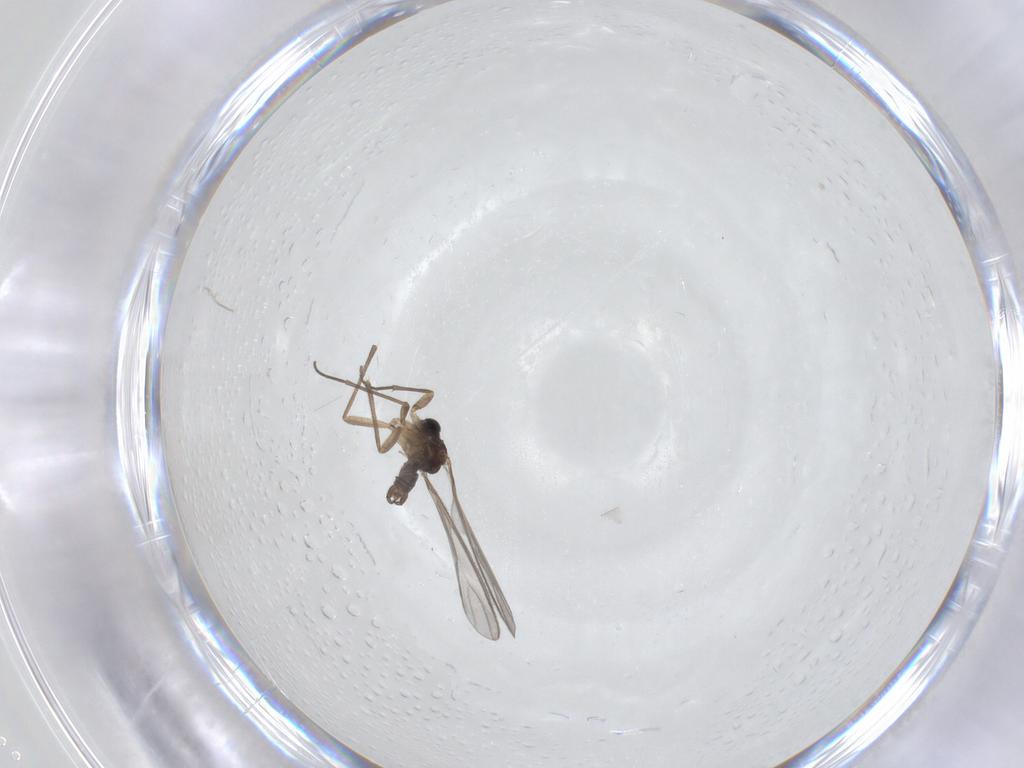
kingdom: Animalia
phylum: Arthropoda
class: Insecta
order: Diptera
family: Sciaridae
